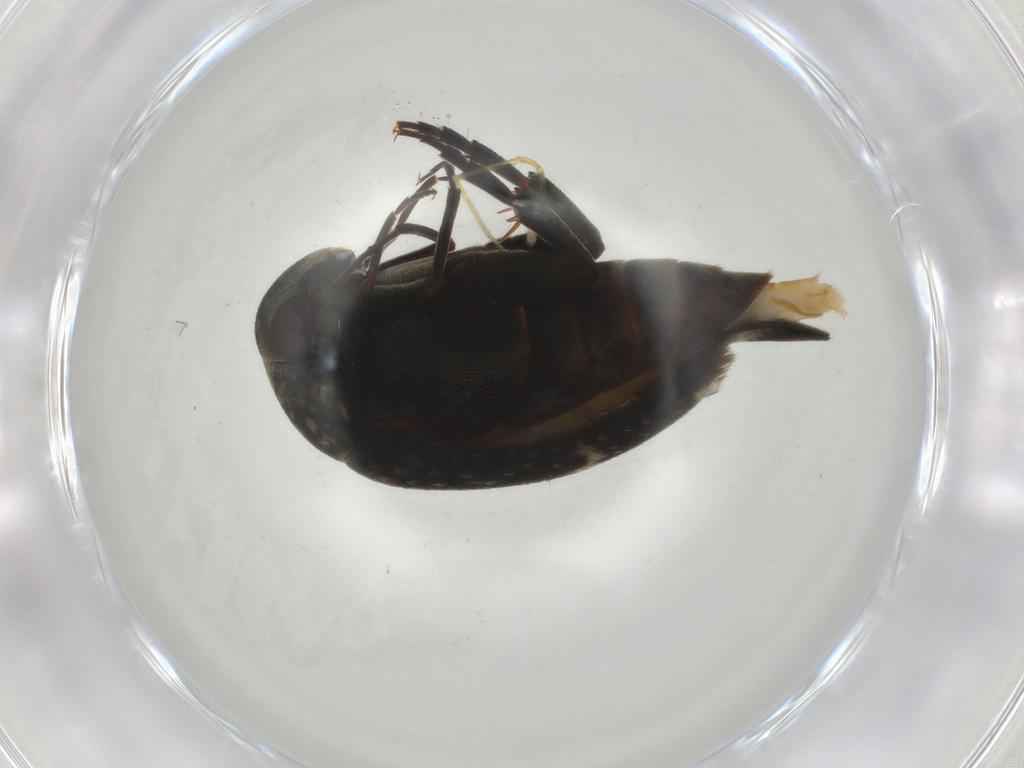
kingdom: Animalia
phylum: Arthropoda
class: Insecta
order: Coleoptera
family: Mordellidae
